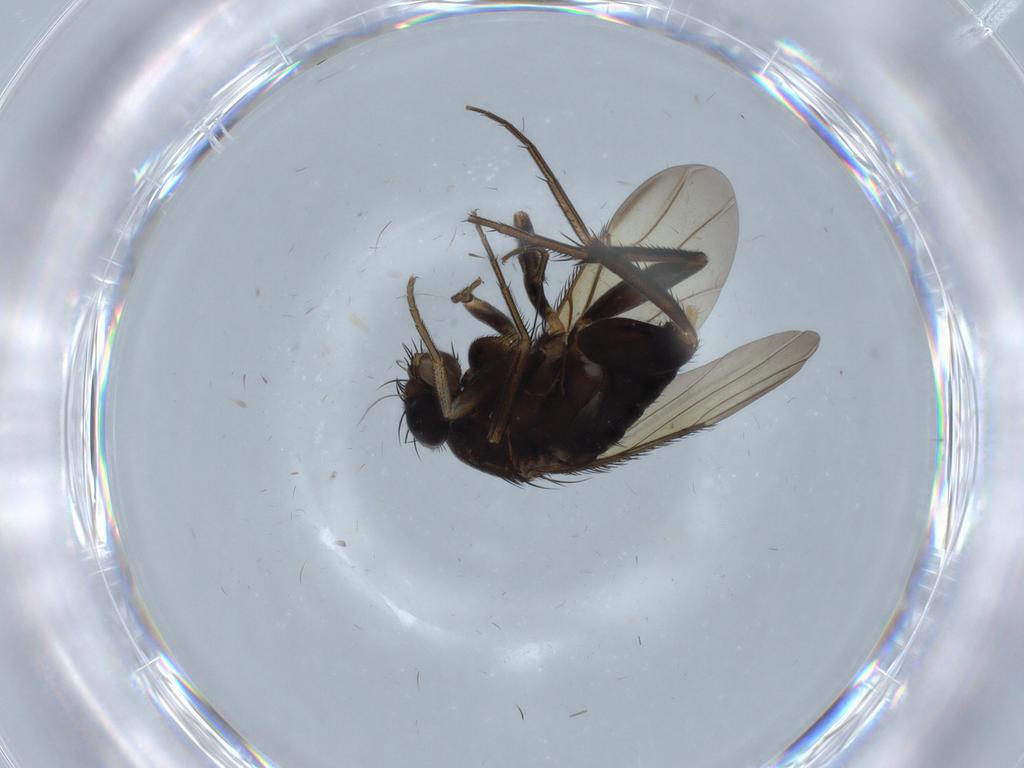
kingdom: Animalia
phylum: Arthropoda
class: Insecta
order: Diptera
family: Phoridae
